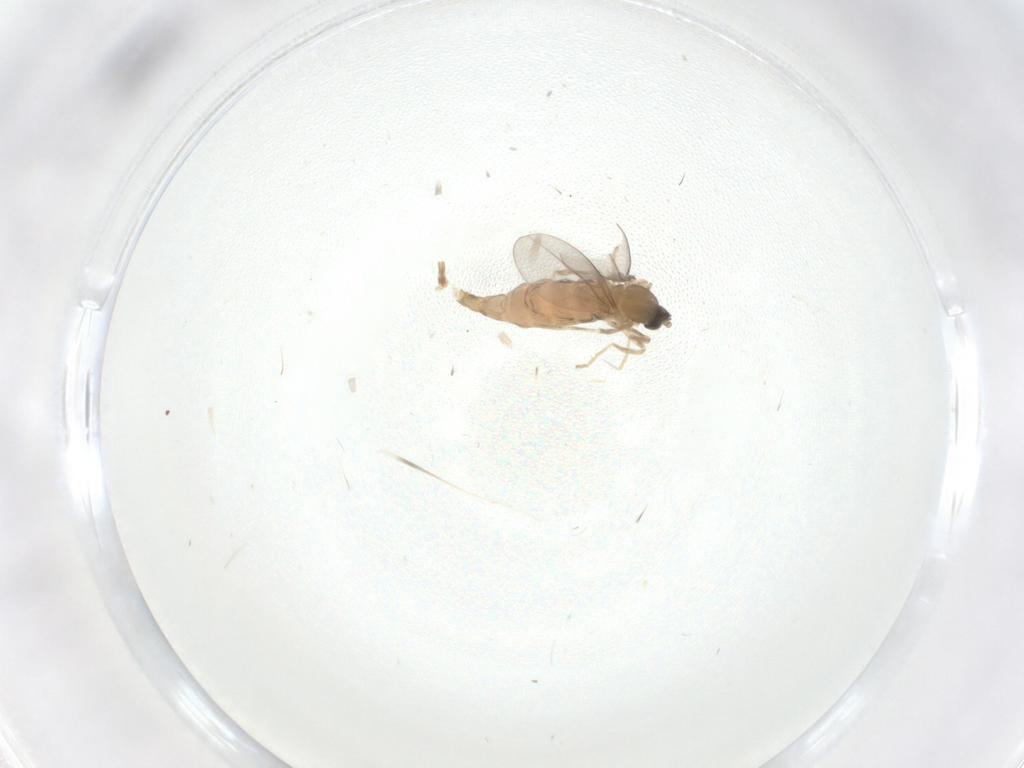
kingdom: Animalia
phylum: Arthropoda
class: Insecta
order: Diptera
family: Cecidomyiidae
